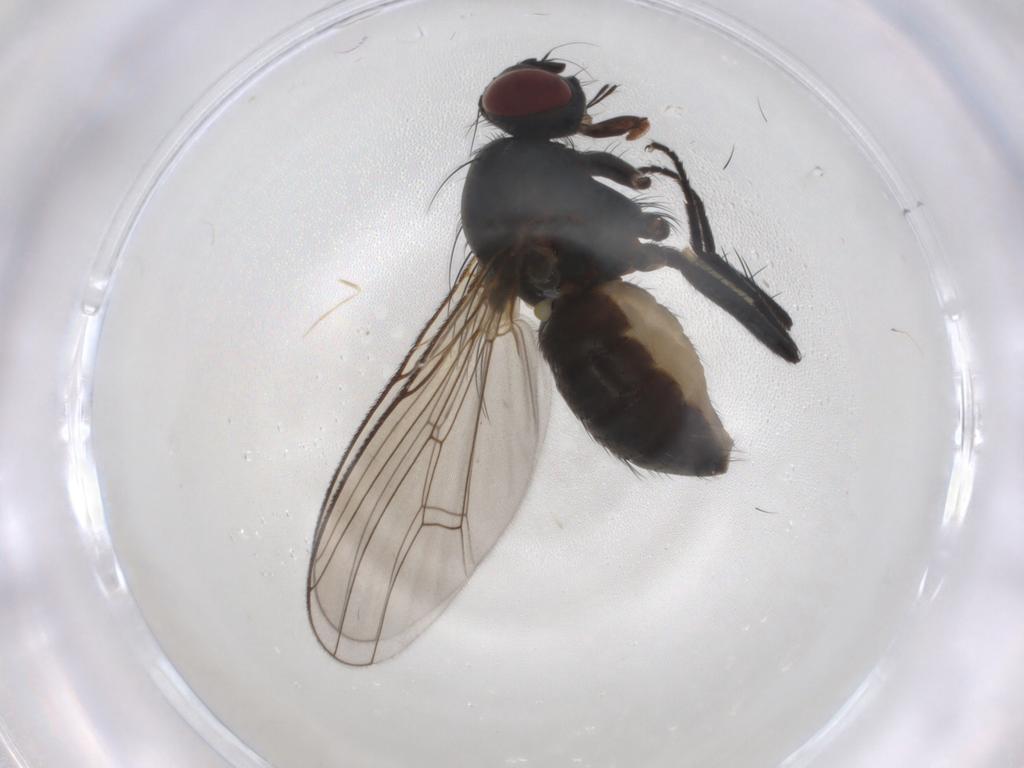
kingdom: Animalia
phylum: Arthropoda
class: Insecta
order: Diptera
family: Muscidae
